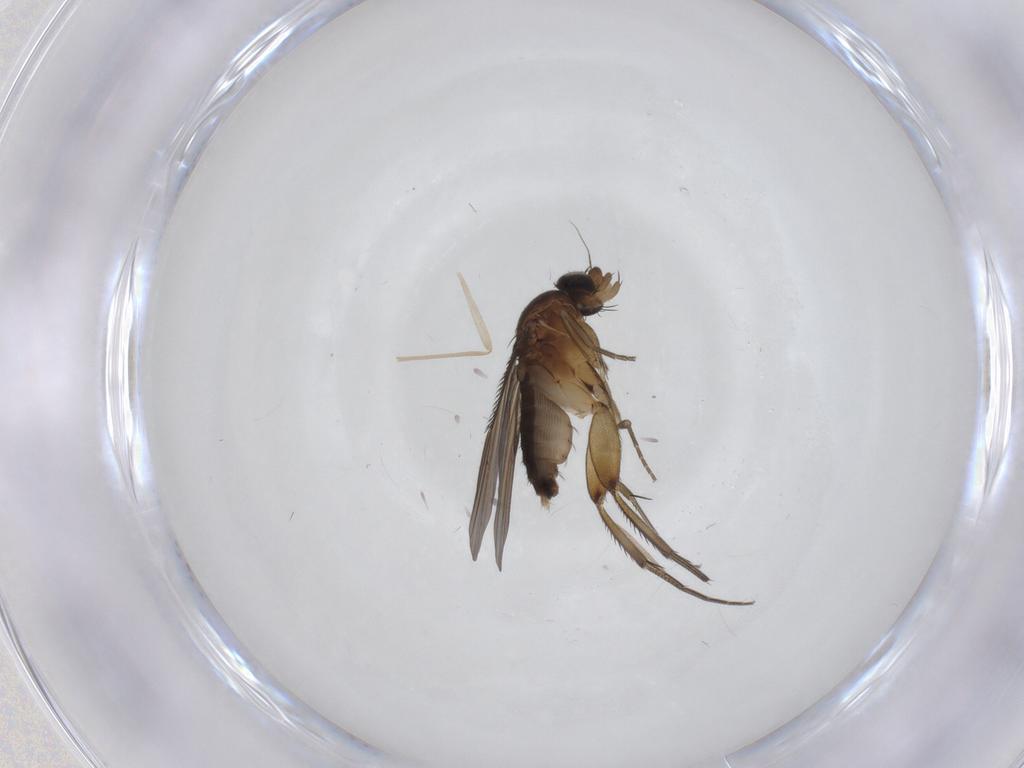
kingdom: Animalia
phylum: Arthropoda
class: Insecta
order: Diptera
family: Phoridae
